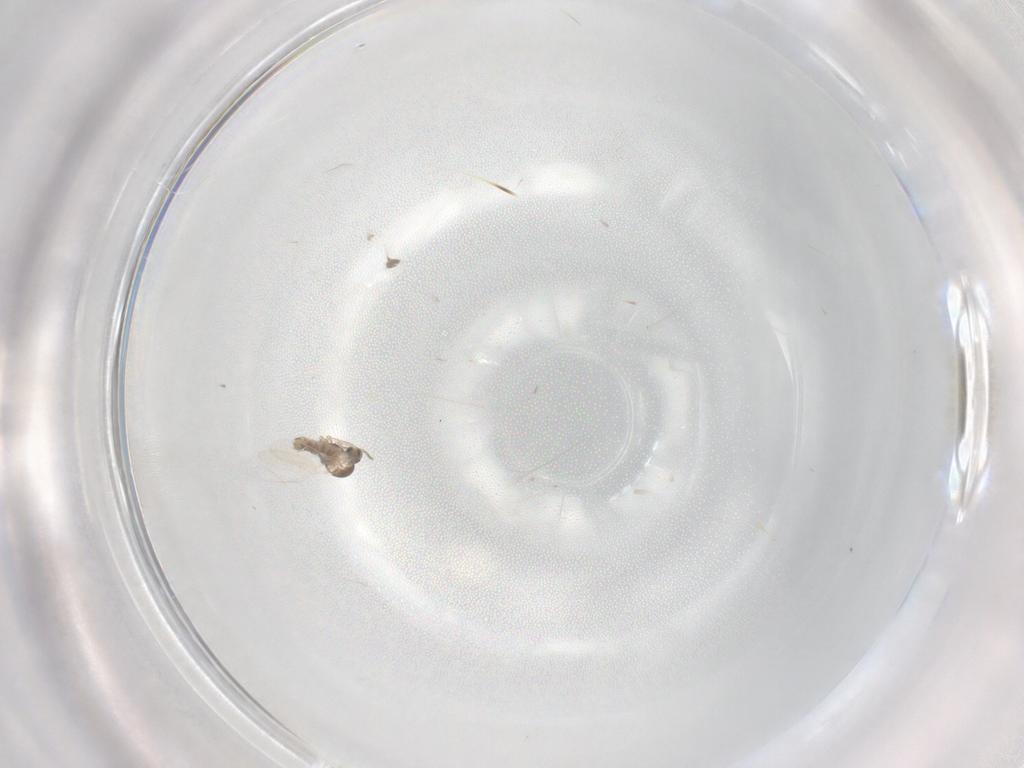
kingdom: Animalia
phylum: Arthropoda
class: Insecta
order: Diptera
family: Cecidomyiidae
